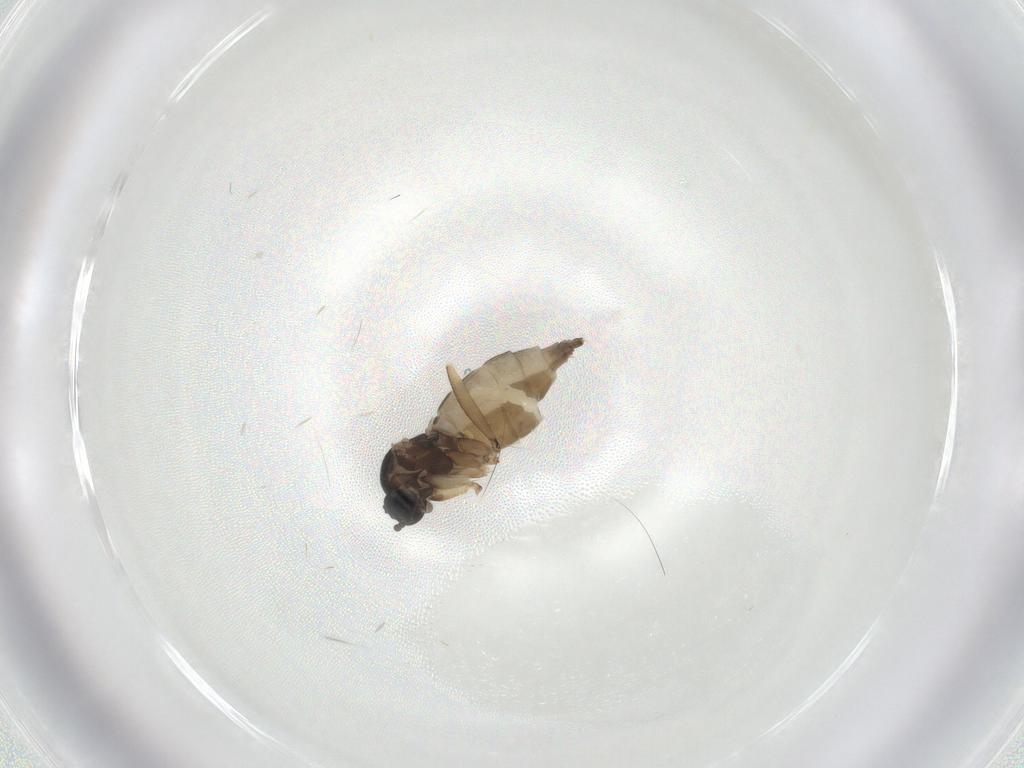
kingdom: Animalia
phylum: Arthropoda
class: Insecta
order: Diptera
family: Sciaridae
